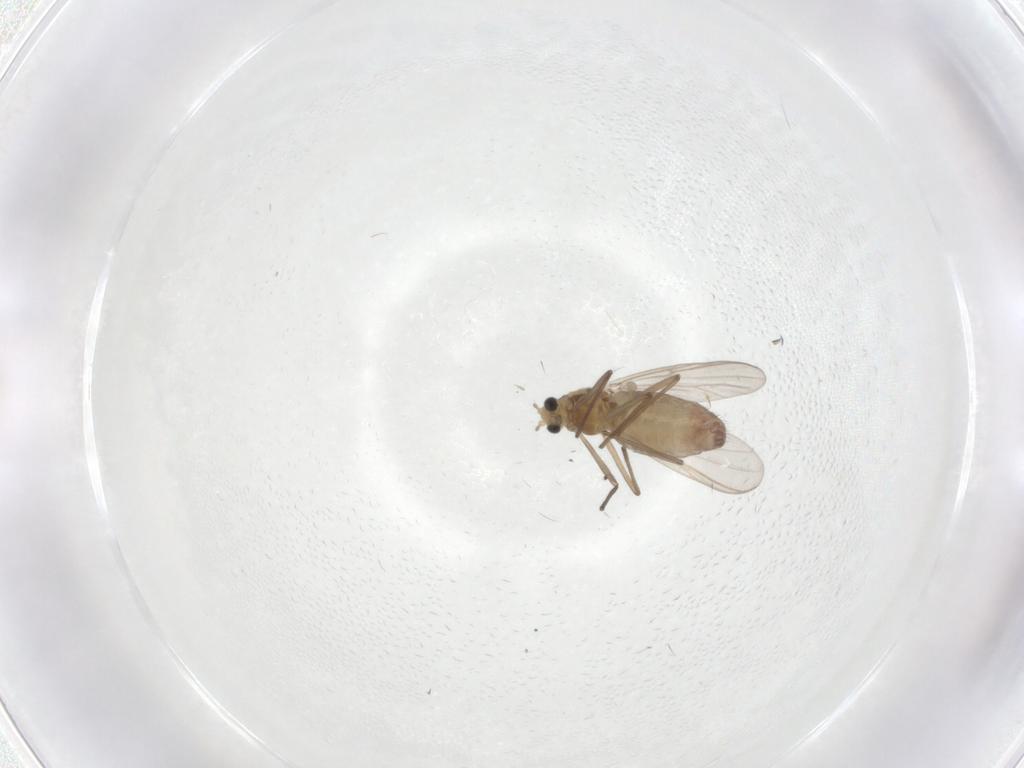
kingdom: Animalia
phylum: Arthropoda
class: Insecta
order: Diptera
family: Chironomidae
